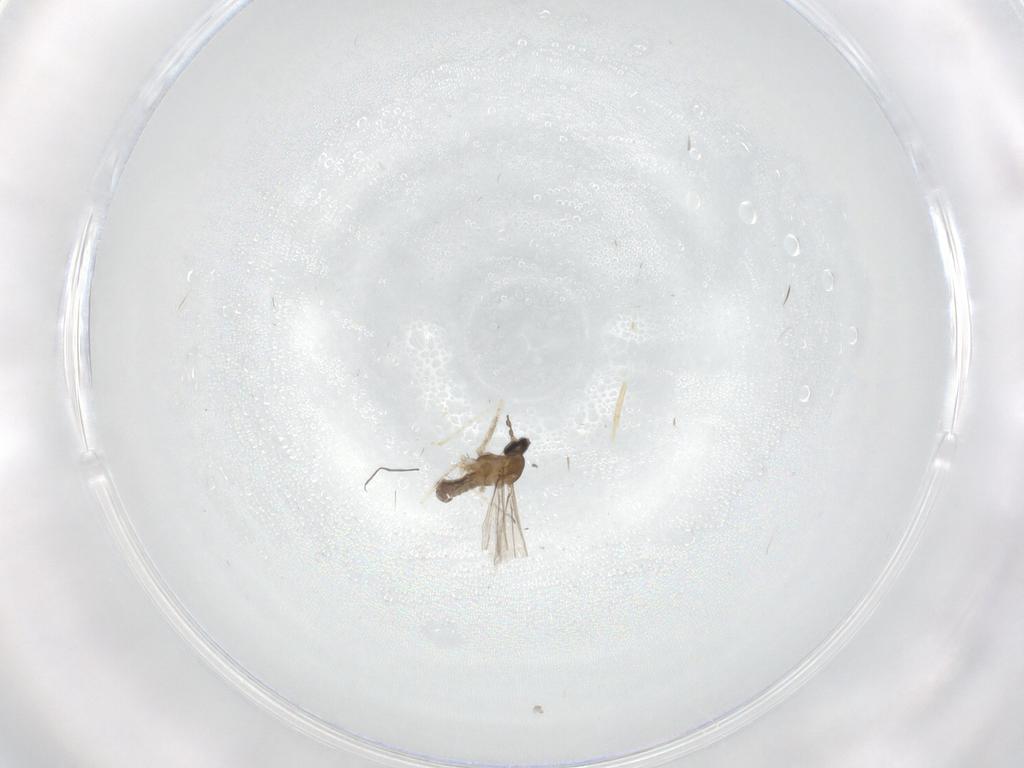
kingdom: Animalia
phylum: Arthropoda
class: Insecta
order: Diptera
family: Cecidomyiidae
